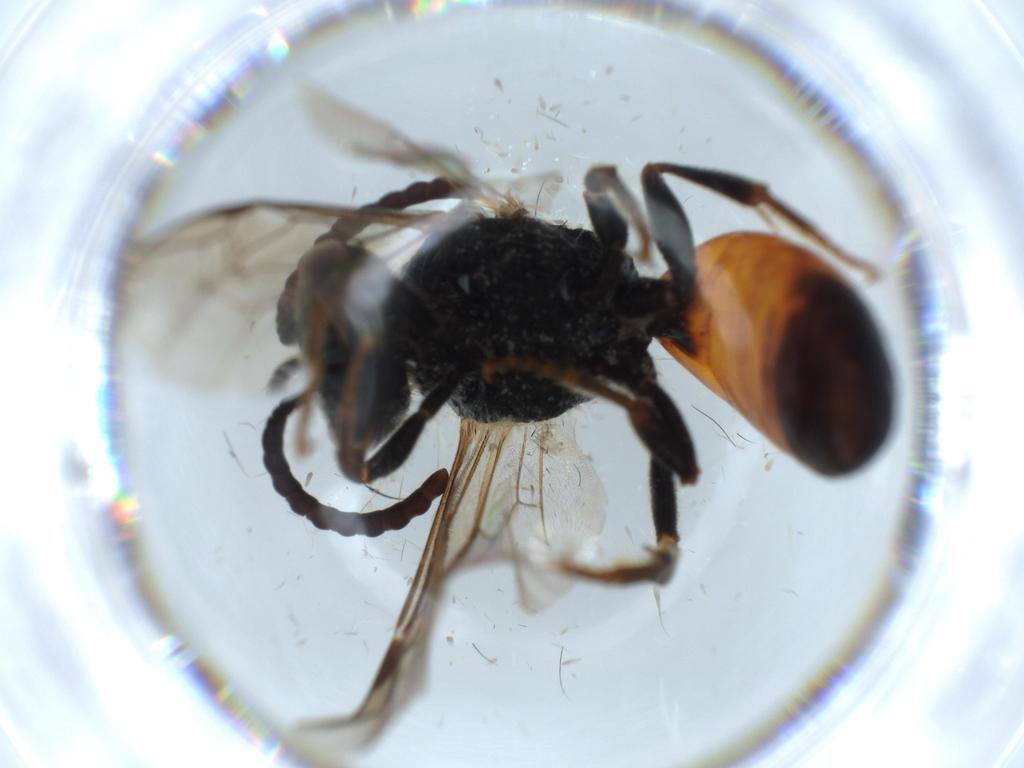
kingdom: Animalia
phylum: Arthropoda
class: Insecta
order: Hymenoptera
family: Halictidae
